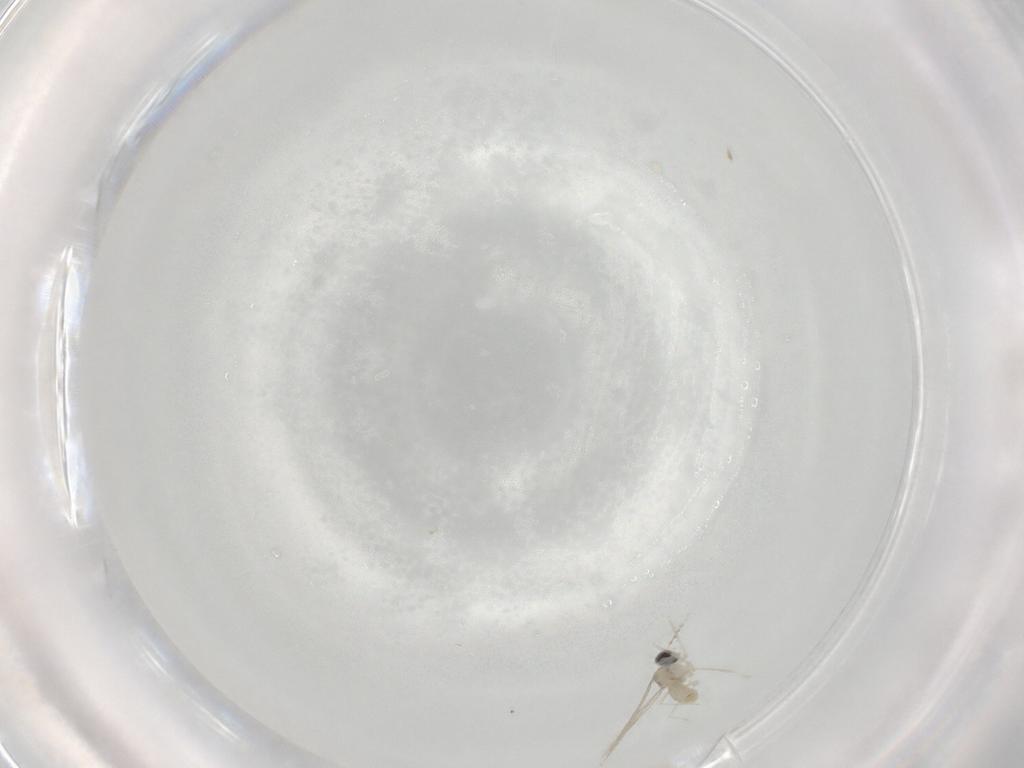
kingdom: Animalia
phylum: Arthropoda
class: Insecta
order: Diptera
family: Cecidomyiidae
